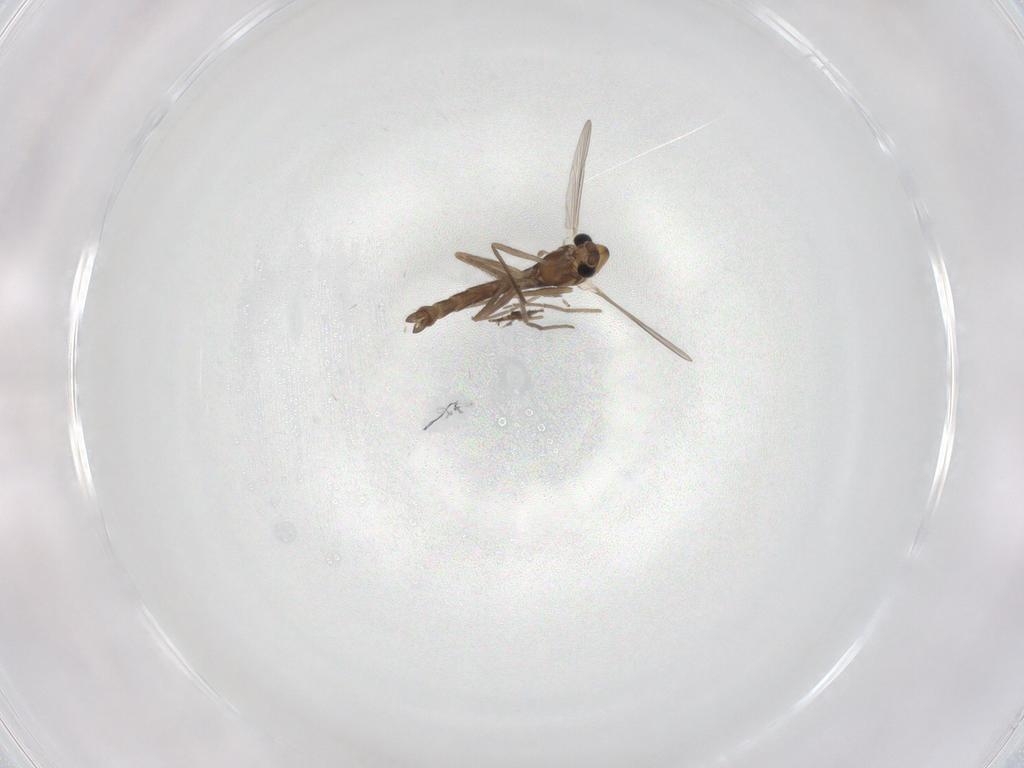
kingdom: Animalia
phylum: Arthropoda
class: Insecta
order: Diptera
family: Chironomidae
